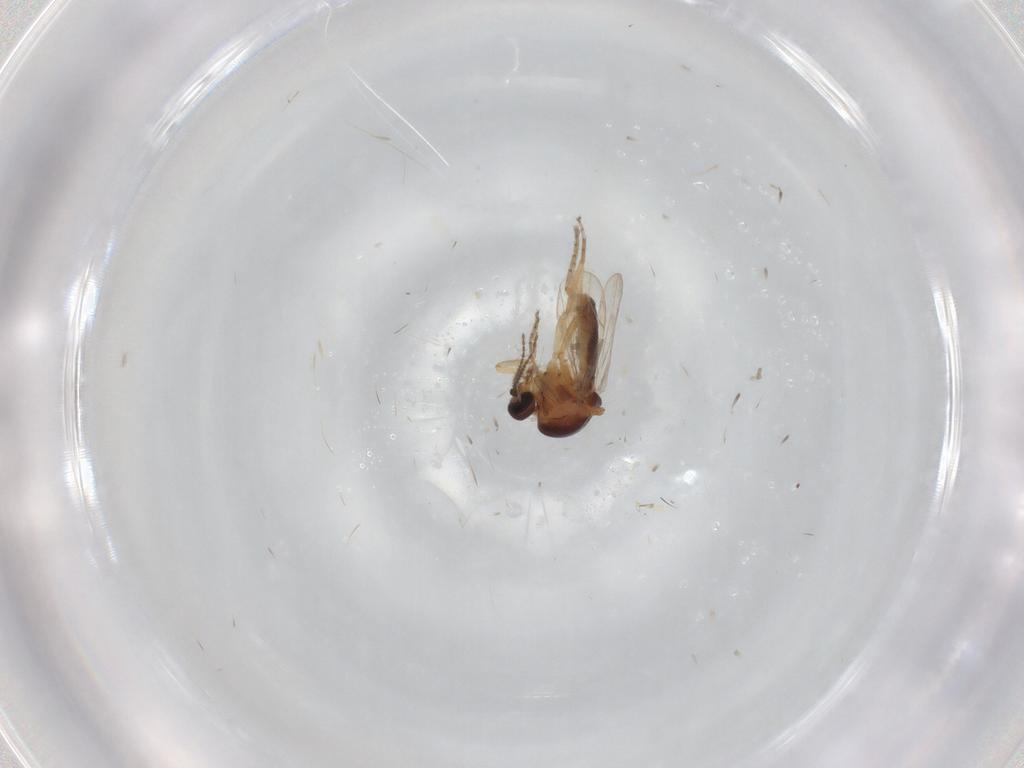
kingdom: Animalia
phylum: Arthropoda
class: Insecta
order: Diptera
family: Ceratopogonidae
